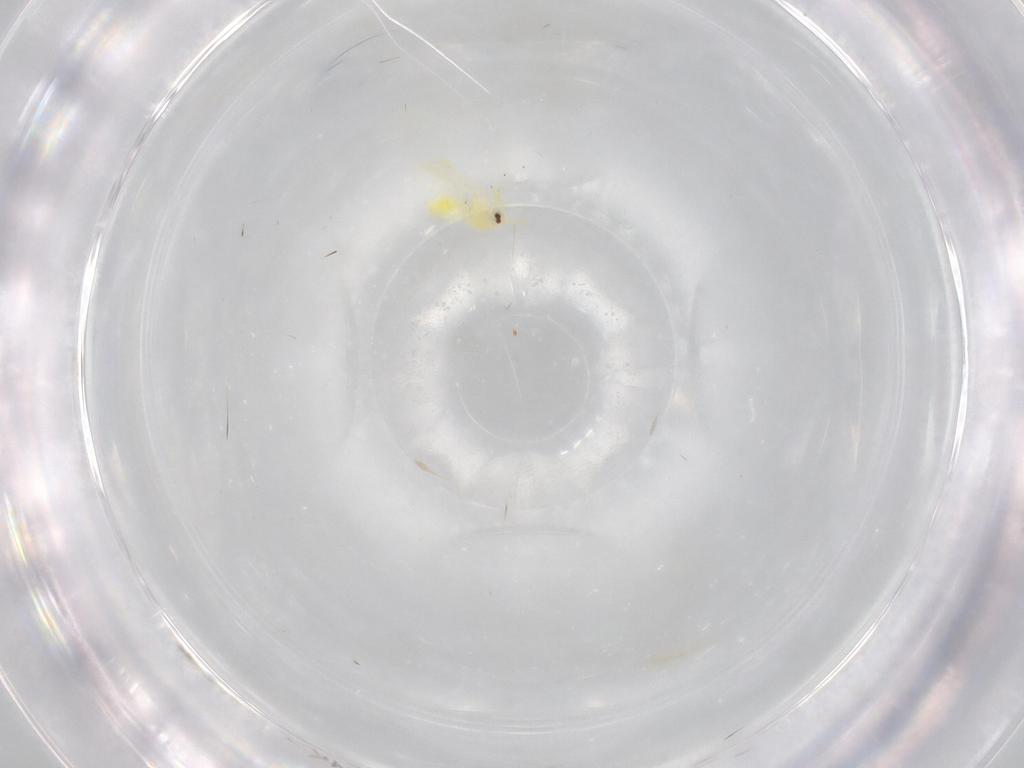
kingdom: Animalia
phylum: Arthropoda
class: Insecta
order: Hemiptera
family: Aleyrodidae
